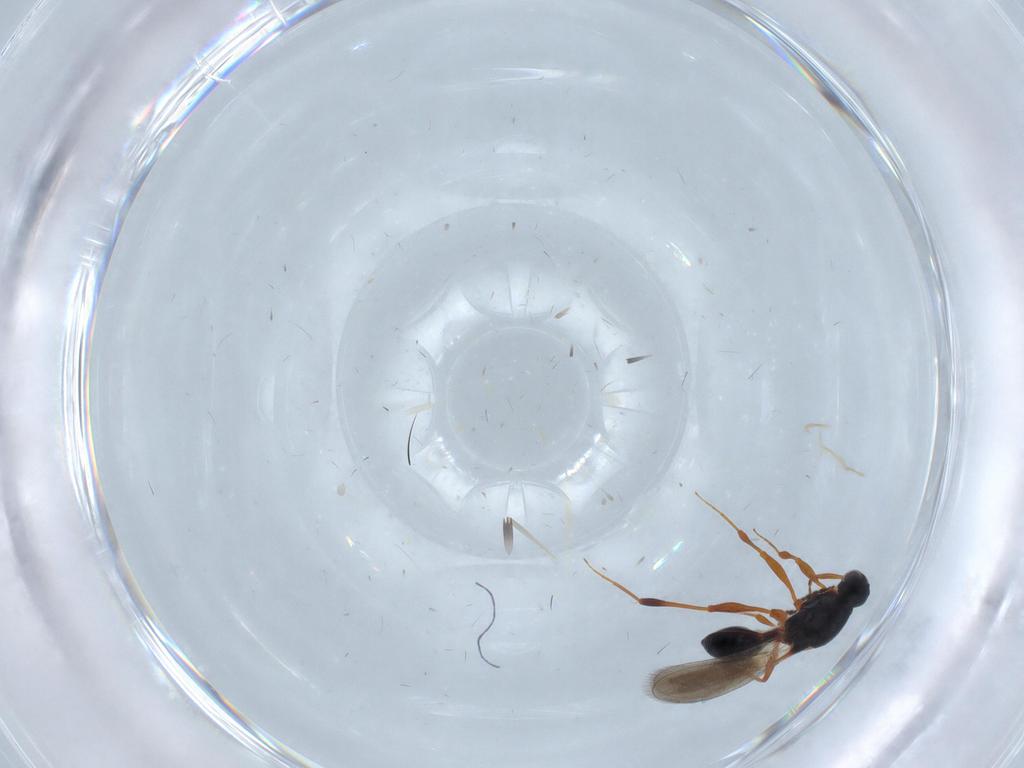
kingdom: Animalia
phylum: Arthropoda
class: Insecta
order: Hymenoptera
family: Platygastridae
